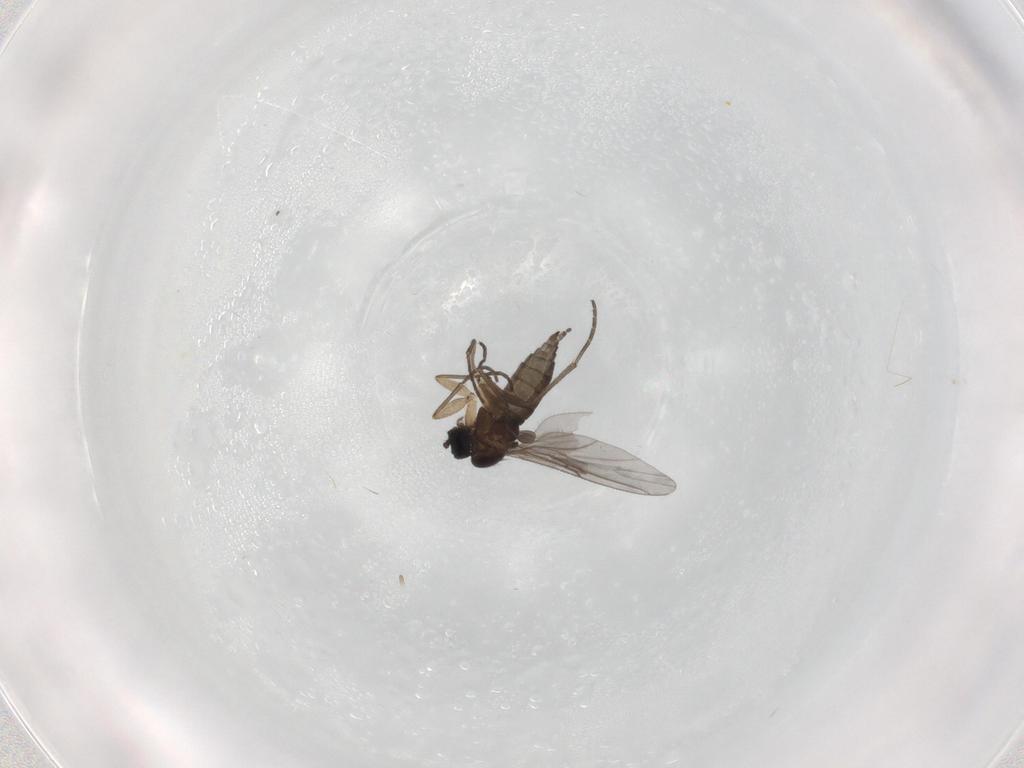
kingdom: Animalia
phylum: Arthropoda
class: Insecta
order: Diptera
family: Sciaridae
